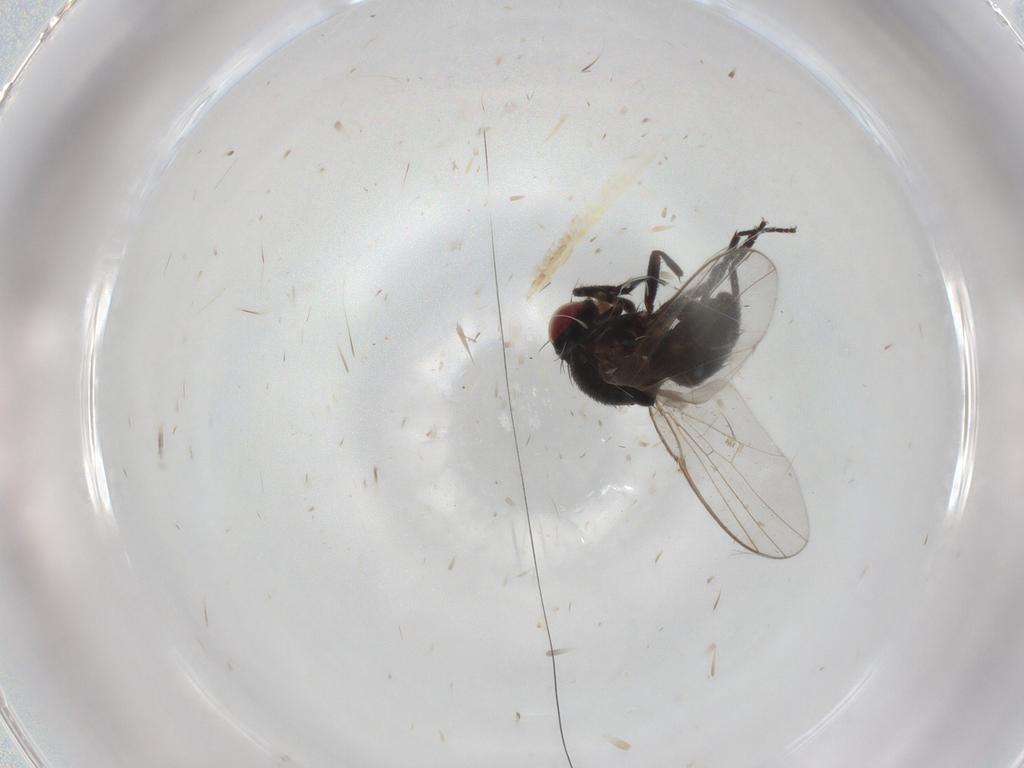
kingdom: Animalia
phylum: Arthropoda
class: Insecta
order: Diptera
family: Agromyzidae
